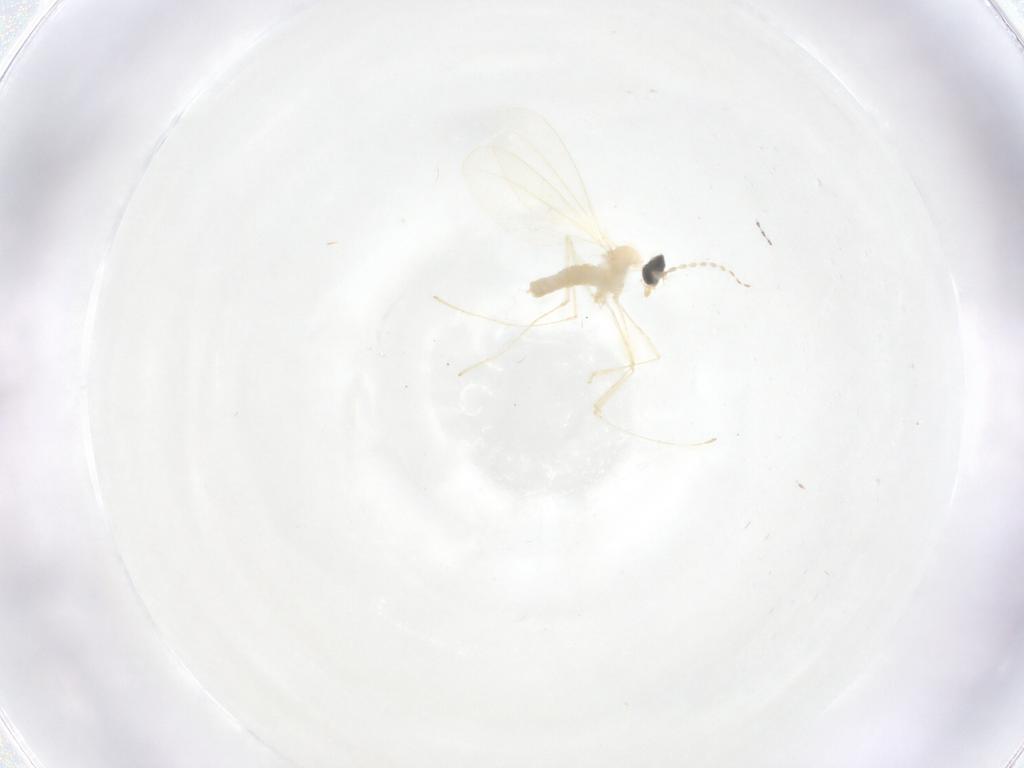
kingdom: Animalia
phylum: Arthropoda
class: Insecta
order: Diptera
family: Cecidomyiidae
